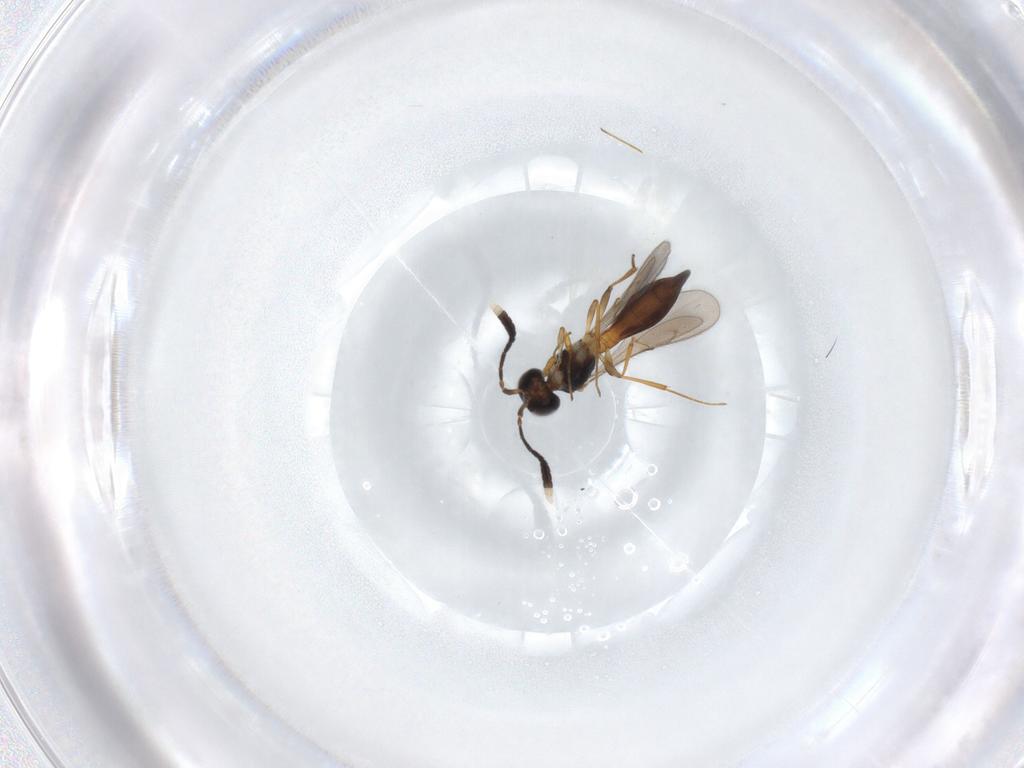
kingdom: Animalia
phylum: Arthropoda
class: Insecta
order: Hymenoptera
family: Scelionidae
